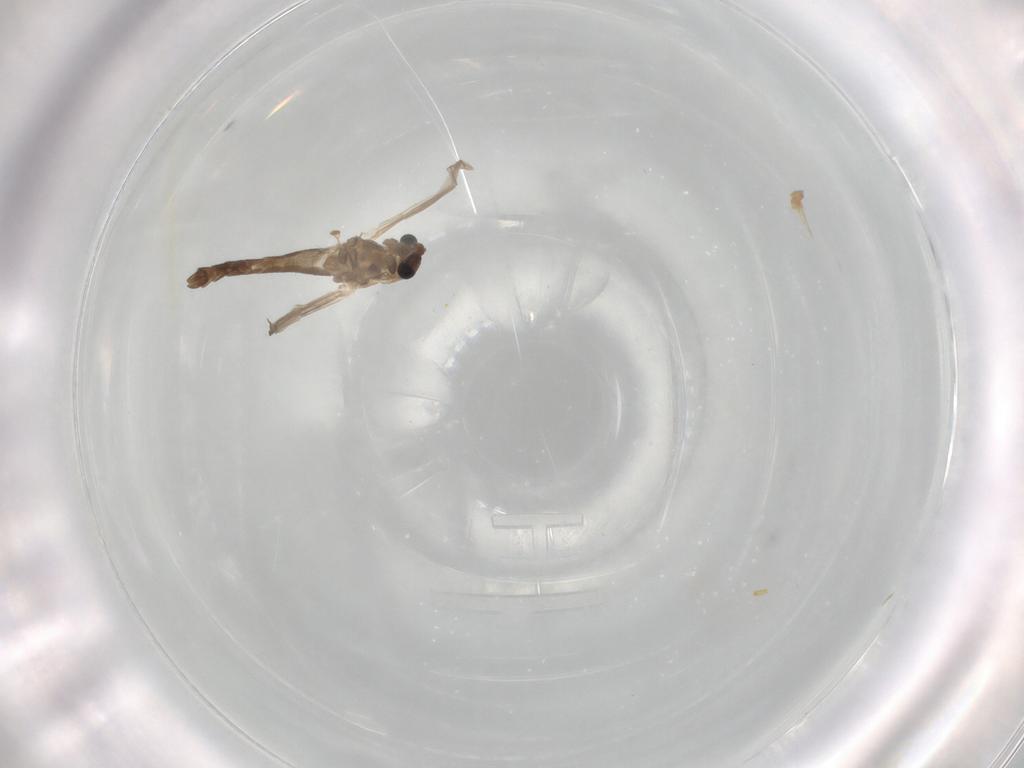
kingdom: Animalia
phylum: Arthropoda
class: Insecta
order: Diptera
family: Chironomidae
